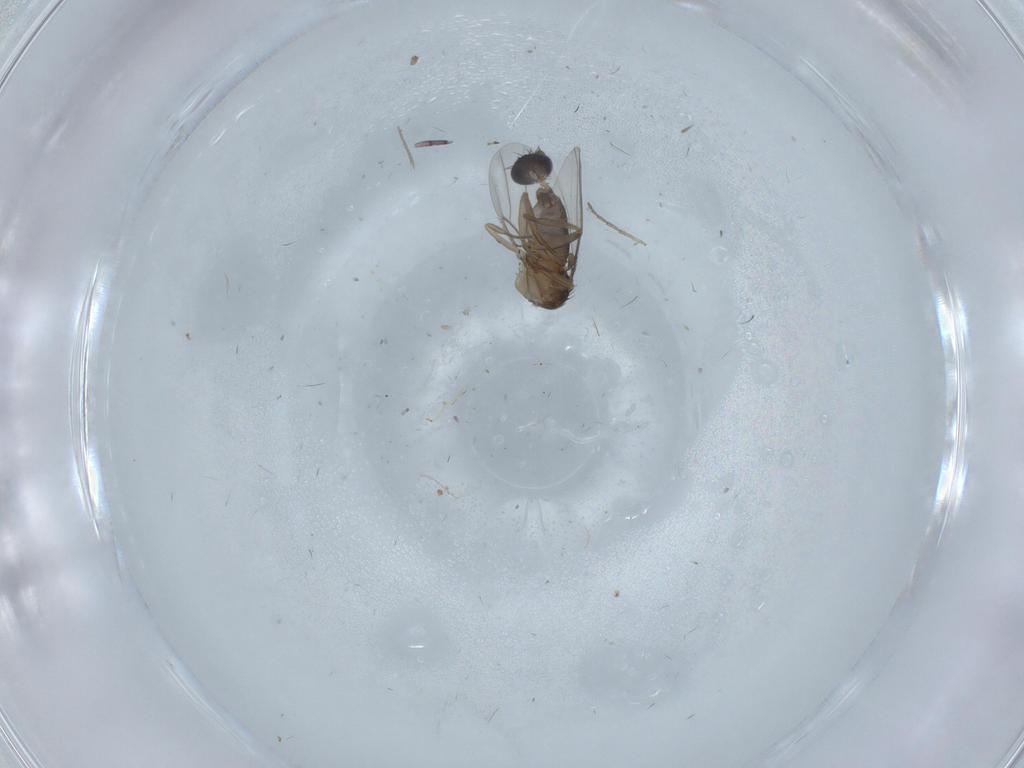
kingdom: Animalia
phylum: Arthropoda
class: Insecta
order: Diptera
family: Phoridae
